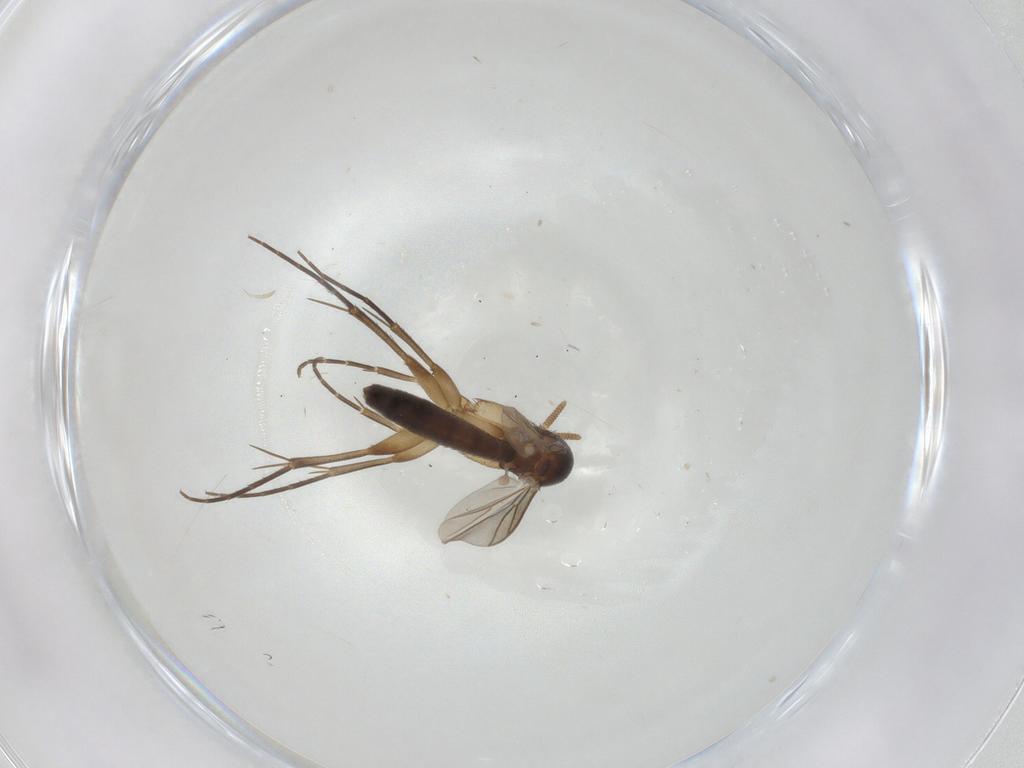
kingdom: Animalia
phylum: Arthropoda
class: Insecta
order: Diptera
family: Mycetophilidae
